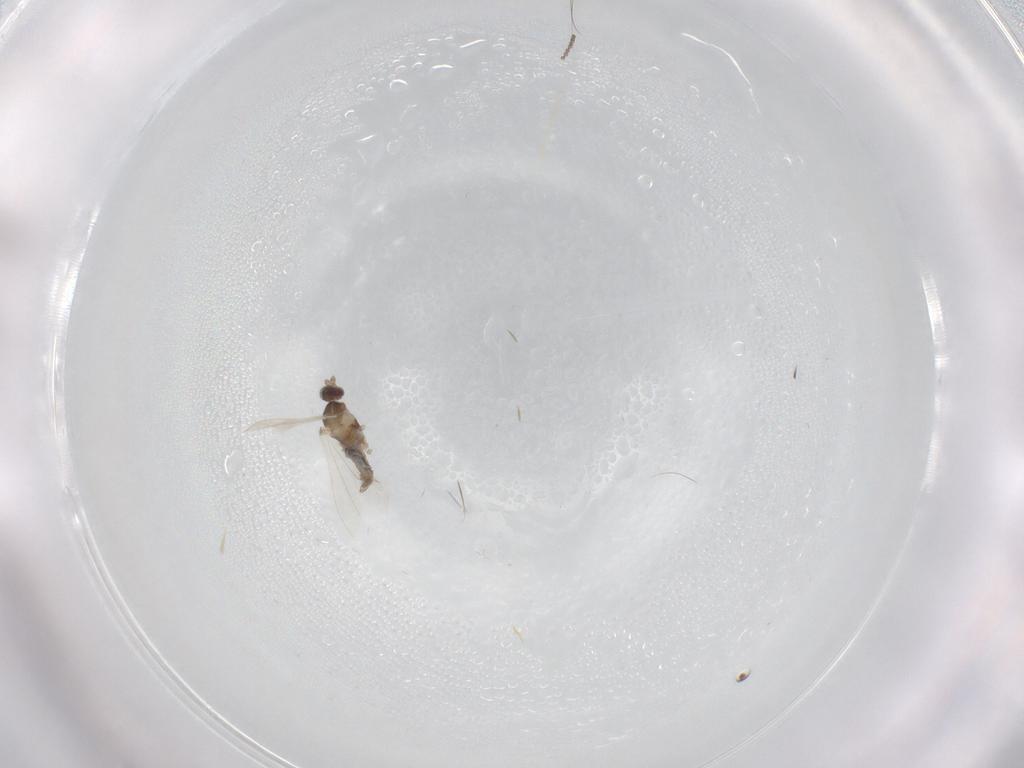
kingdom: Animalia
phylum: Arthropoda
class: Insecta
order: Diptera
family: Cecidomyiidae
